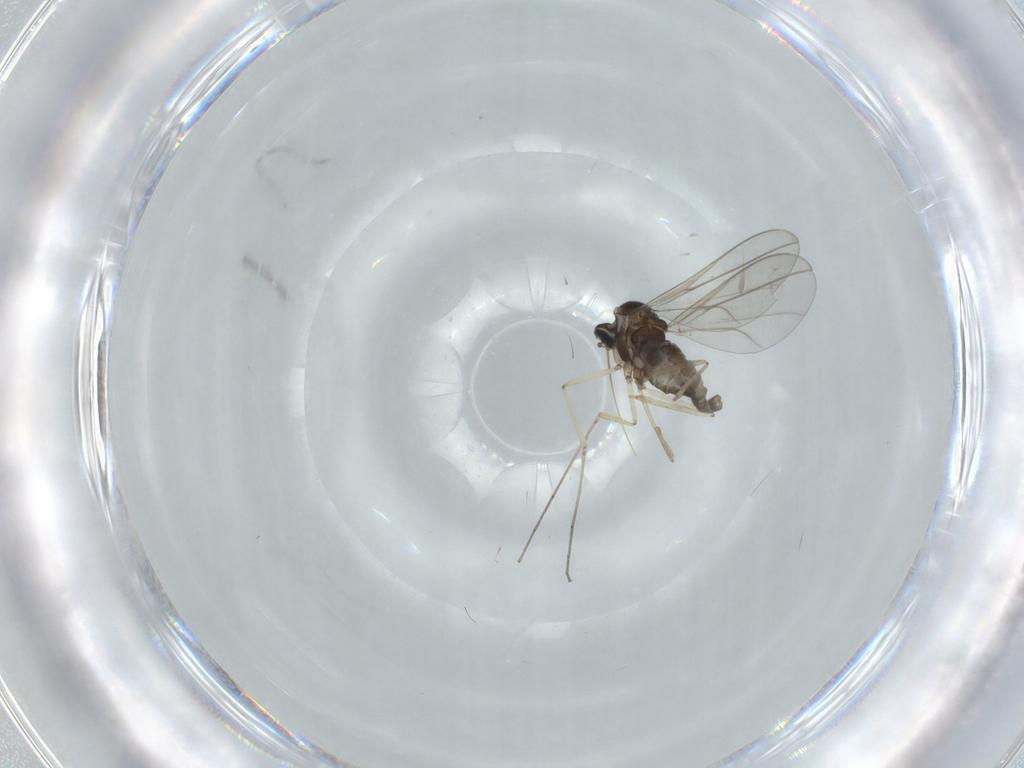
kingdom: Animalia
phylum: Arthropoda
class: Insecta
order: Diptera
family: Cecidomyiidae
